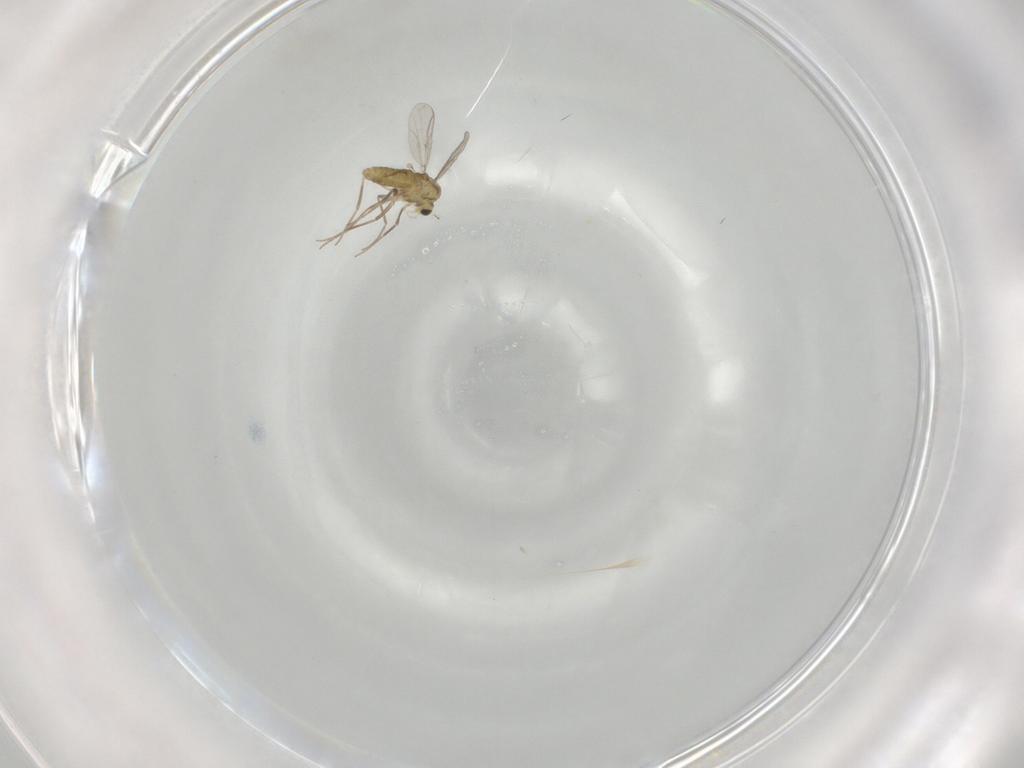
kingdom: Animalia
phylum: Arthropoda
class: Insecta
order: Diptera
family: Chironomidae
